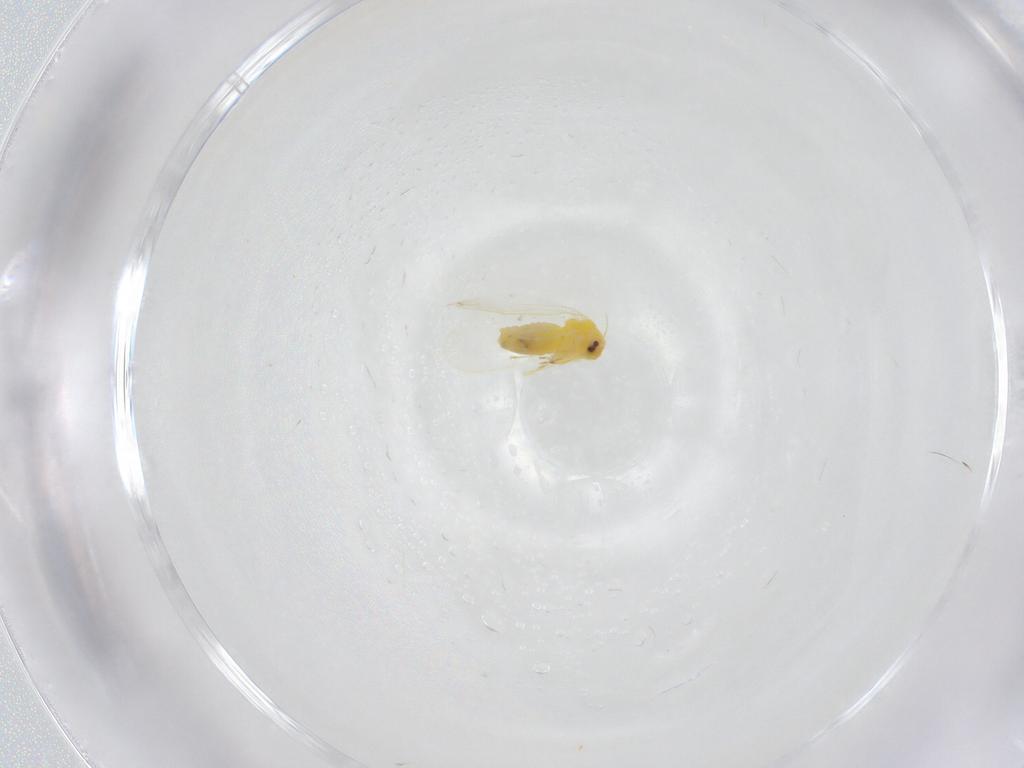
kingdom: Animalia
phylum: Arthropoda
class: Insecta
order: Hemiptera
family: Aleyrodidae
